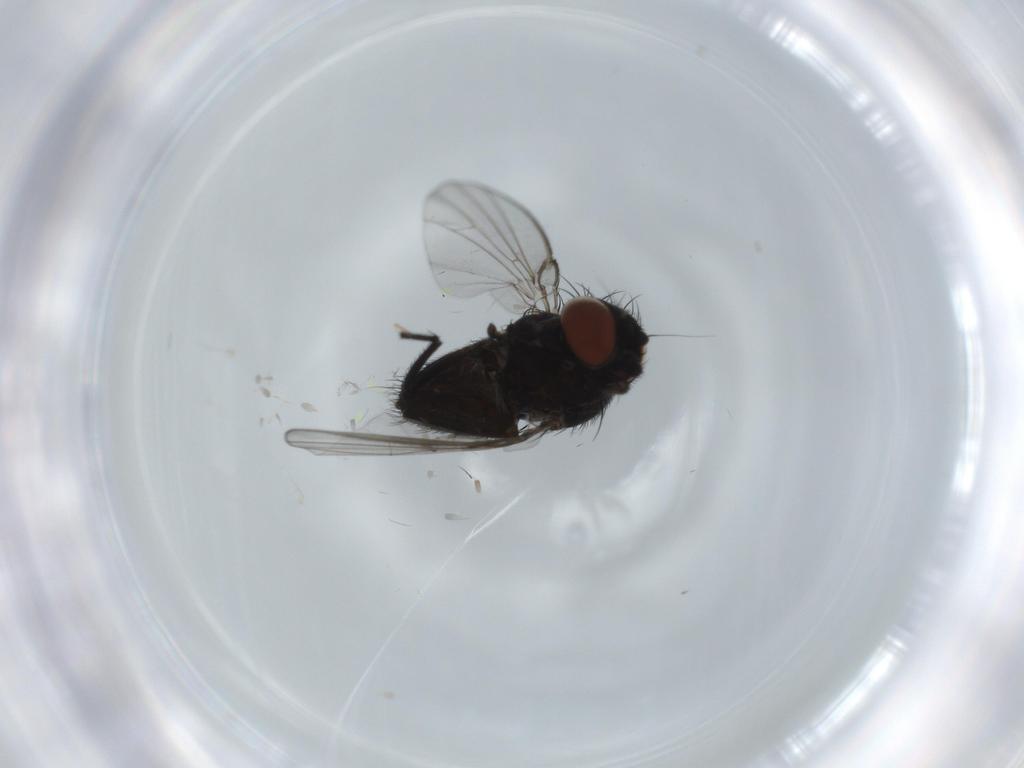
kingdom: Animalia
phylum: Arthropoda
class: Insecta
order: Diptera
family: Milichiidae
